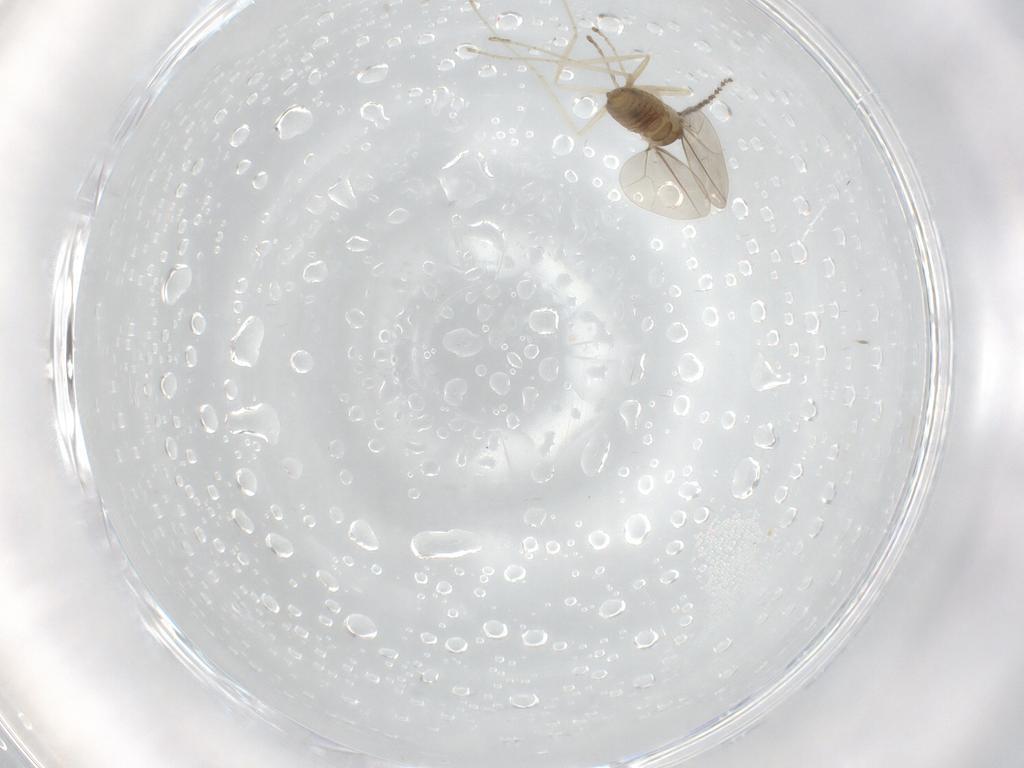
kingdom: Animalia
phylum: Arthropoda
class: Insecta
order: Diptera
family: Cecidomyiidae
